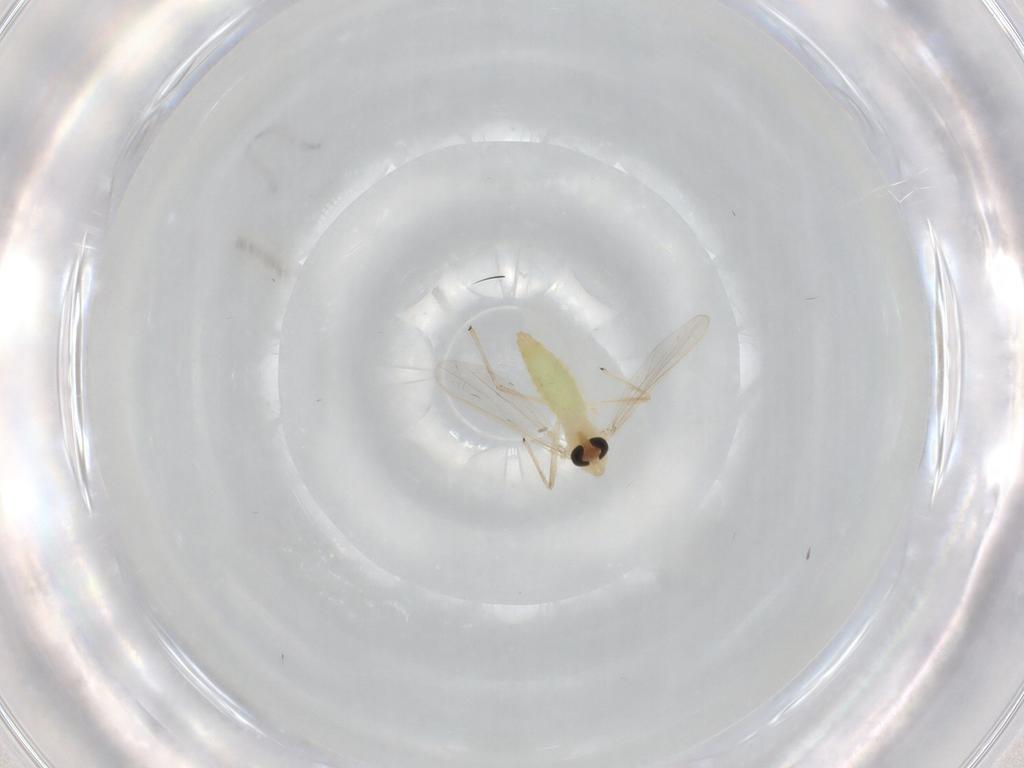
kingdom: Animalia
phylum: Arthropoda
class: Insecta
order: Diptera
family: Chironomidae
